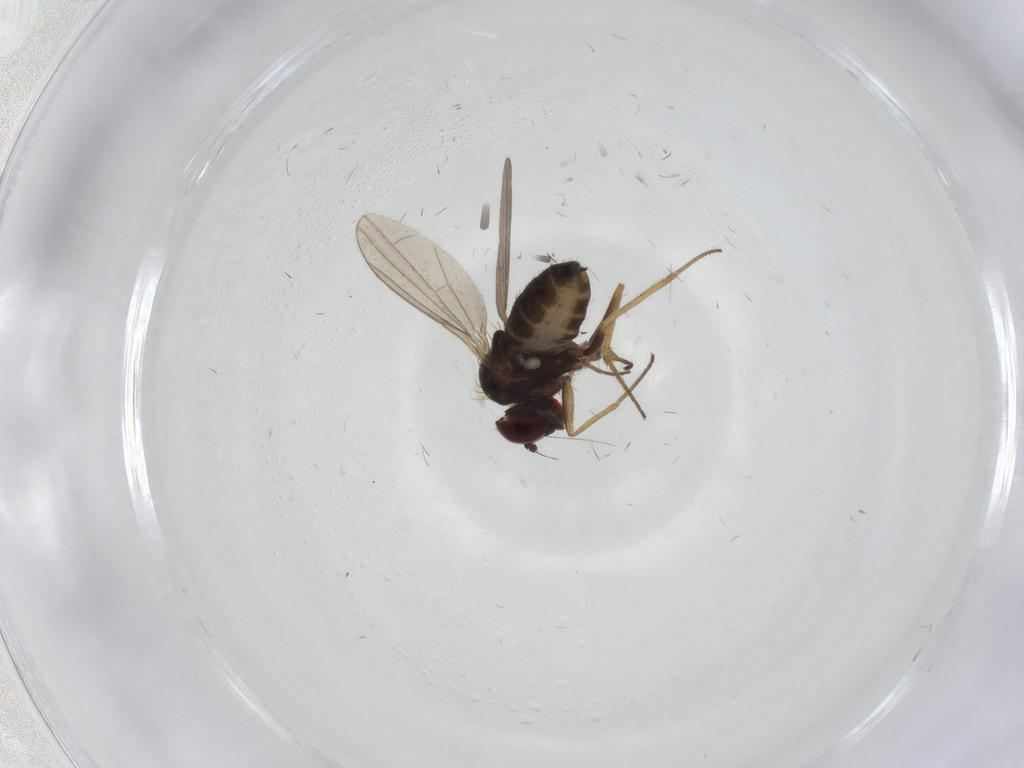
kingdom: Animalia
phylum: Arthropoda
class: Insecta
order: Diptera
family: Dolichopodidae
